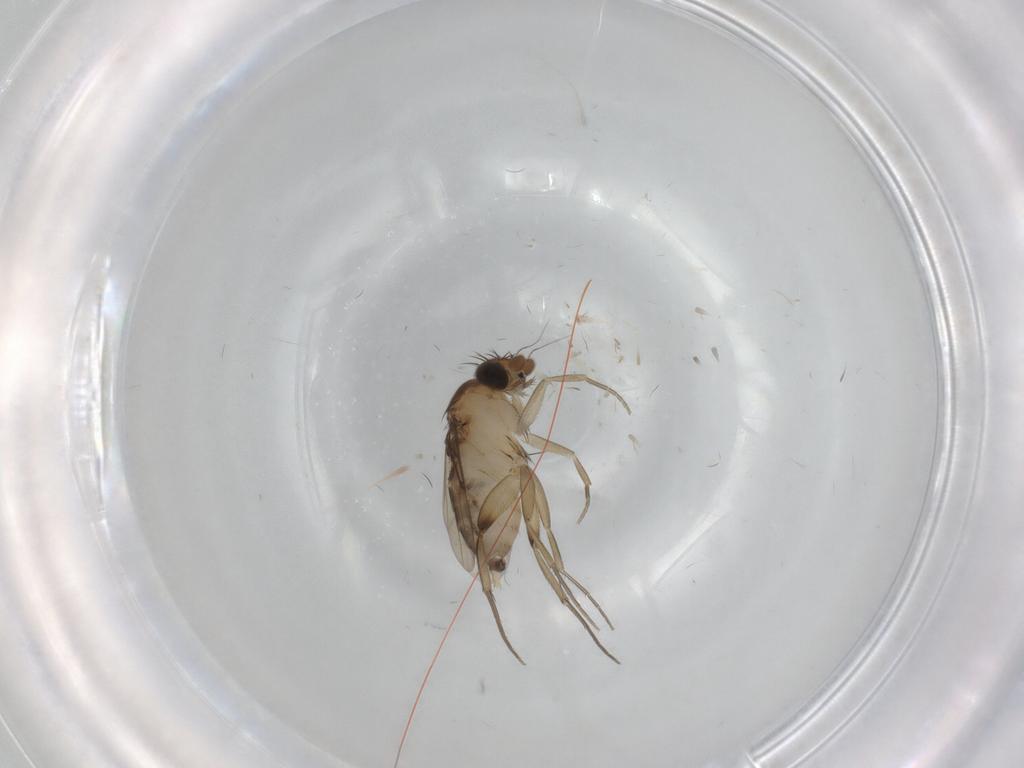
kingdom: Animalia
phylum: Arthropoda
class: Insecta
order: Diptera
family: Phoridae
